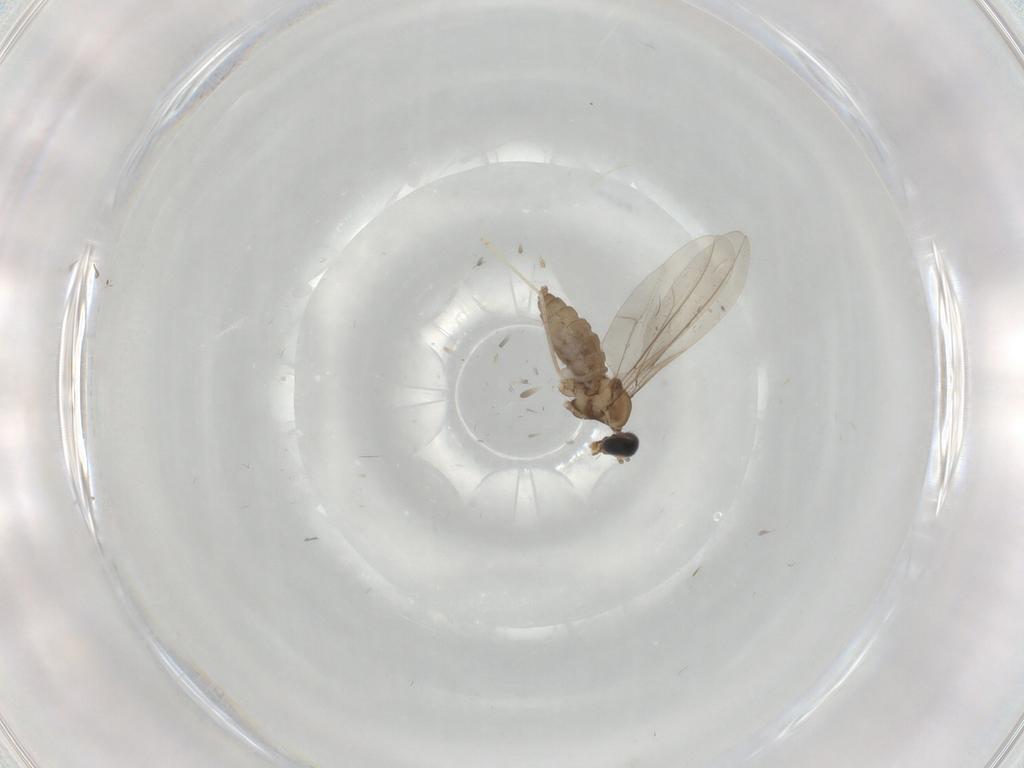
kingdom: Animalia
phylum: Arthropoda
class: Insecta
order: Diptera
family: Cecidomyiidae
